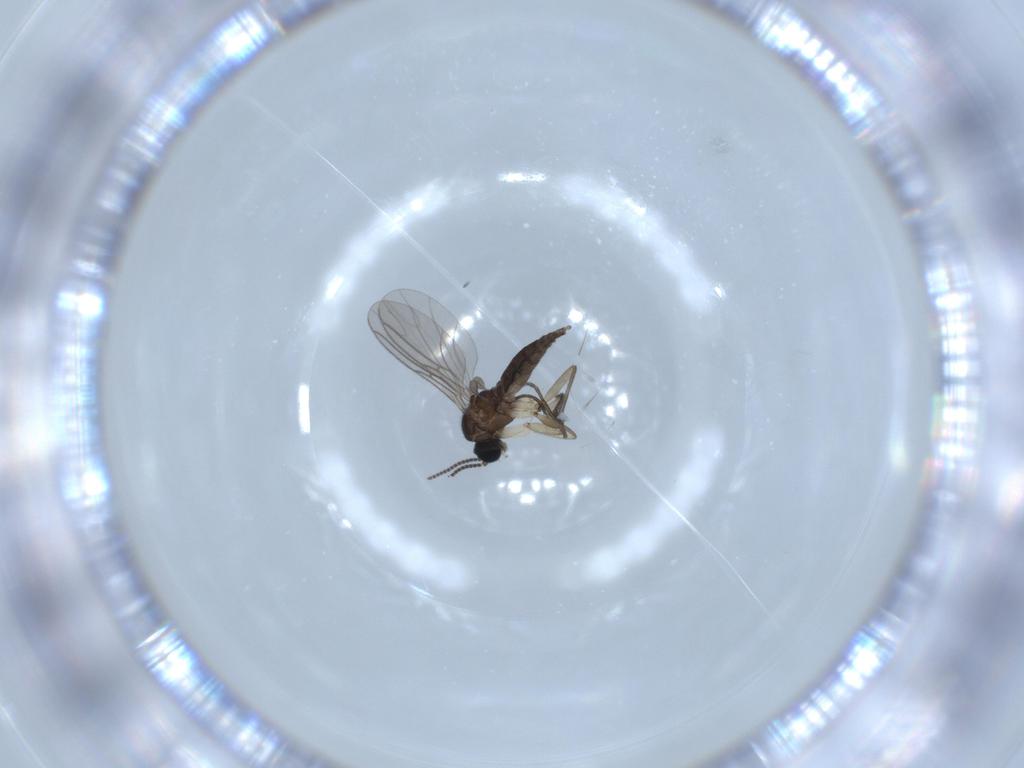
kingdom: Animalia
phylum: Arthropoda
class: Insecta
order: Diptera
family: Sciaridae
